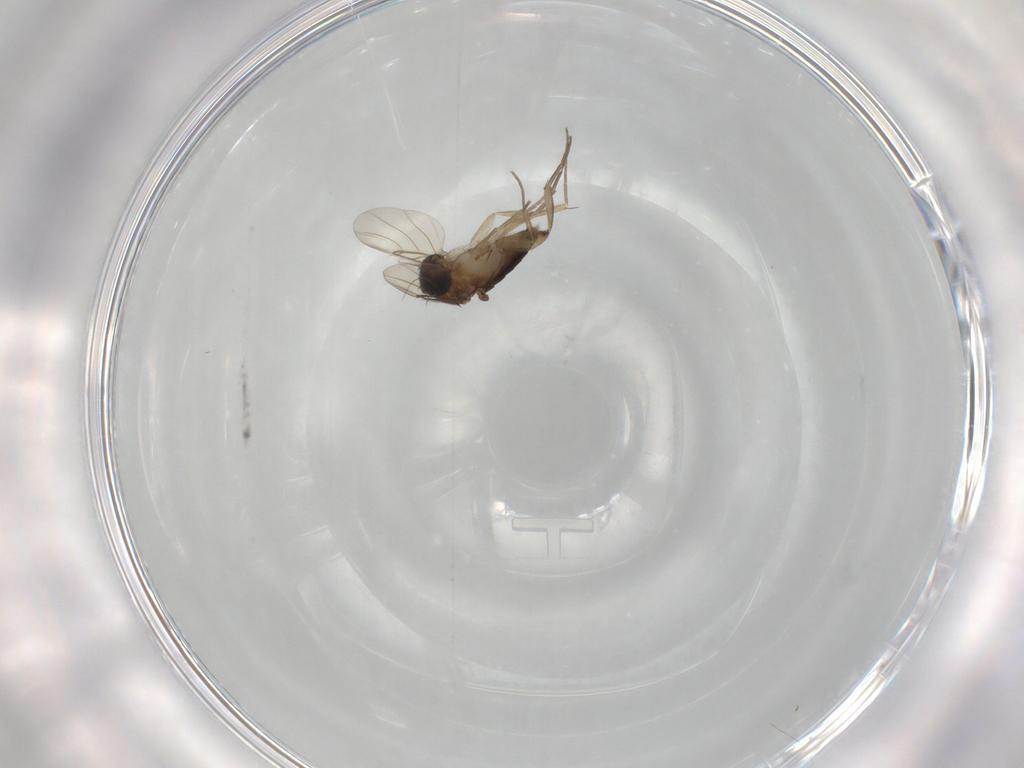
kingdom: Animalia
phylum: Arthropoda
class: Insecta
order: Diptera
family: Phoridae
